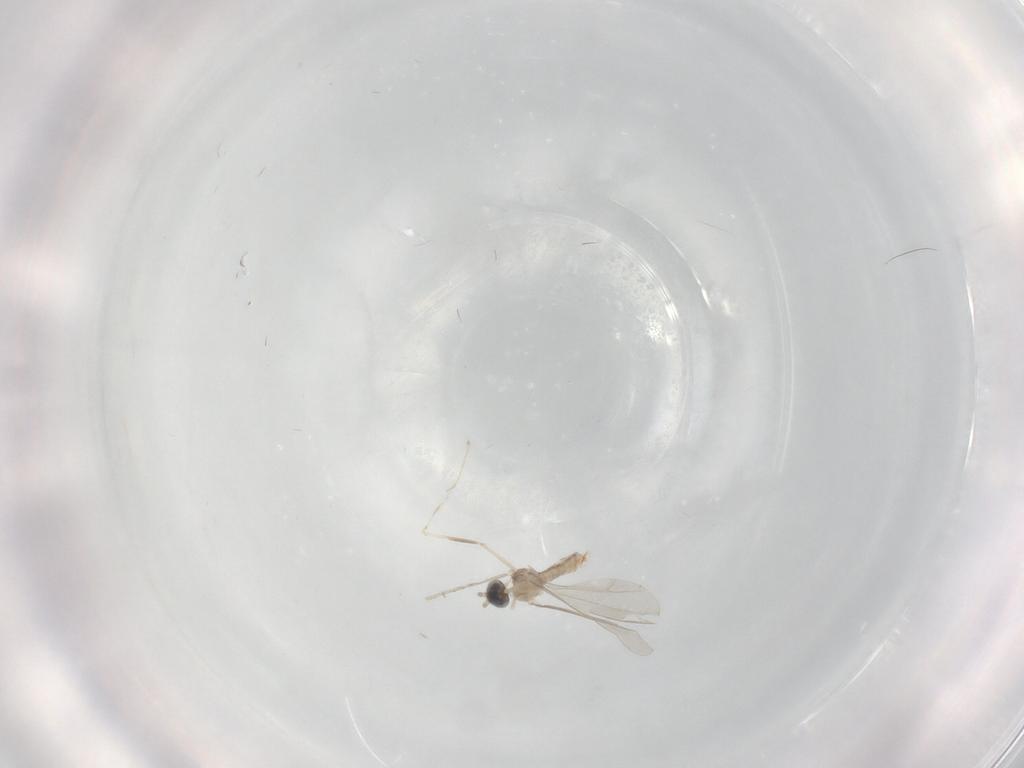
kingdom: Animalia
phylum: Arthropoda
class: Insecta
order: Diptera
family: Cecidomyiidae
